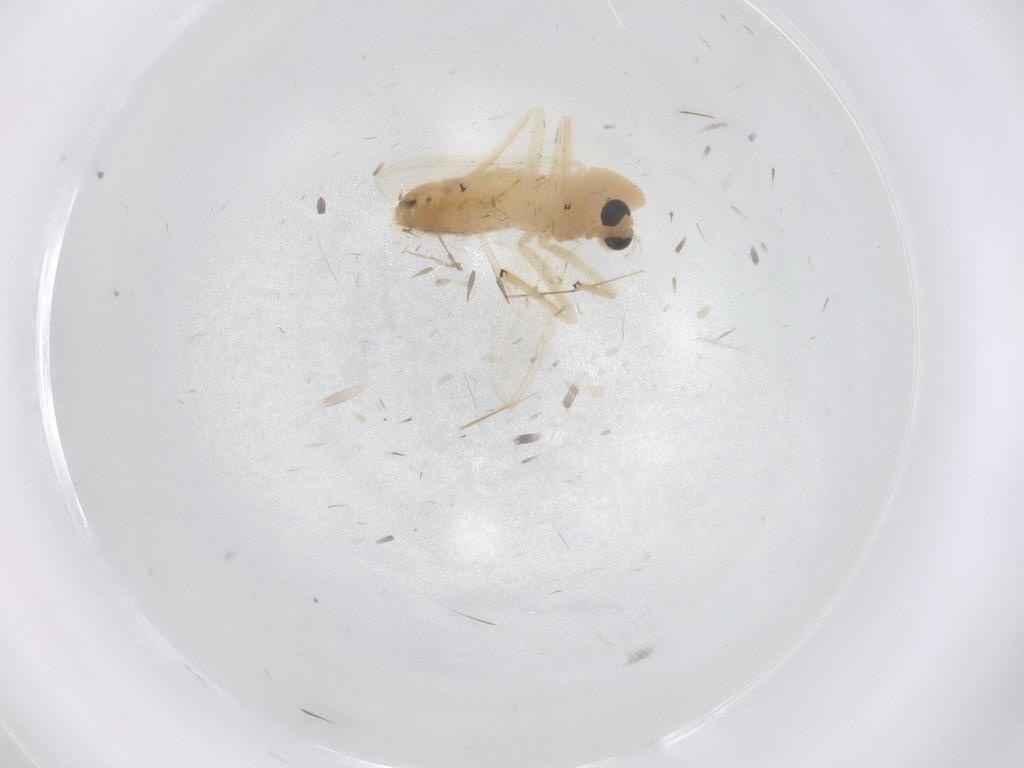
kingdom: Animalia
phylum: Arthropoda
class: Insecta
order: Diptera
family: Chironomidae
